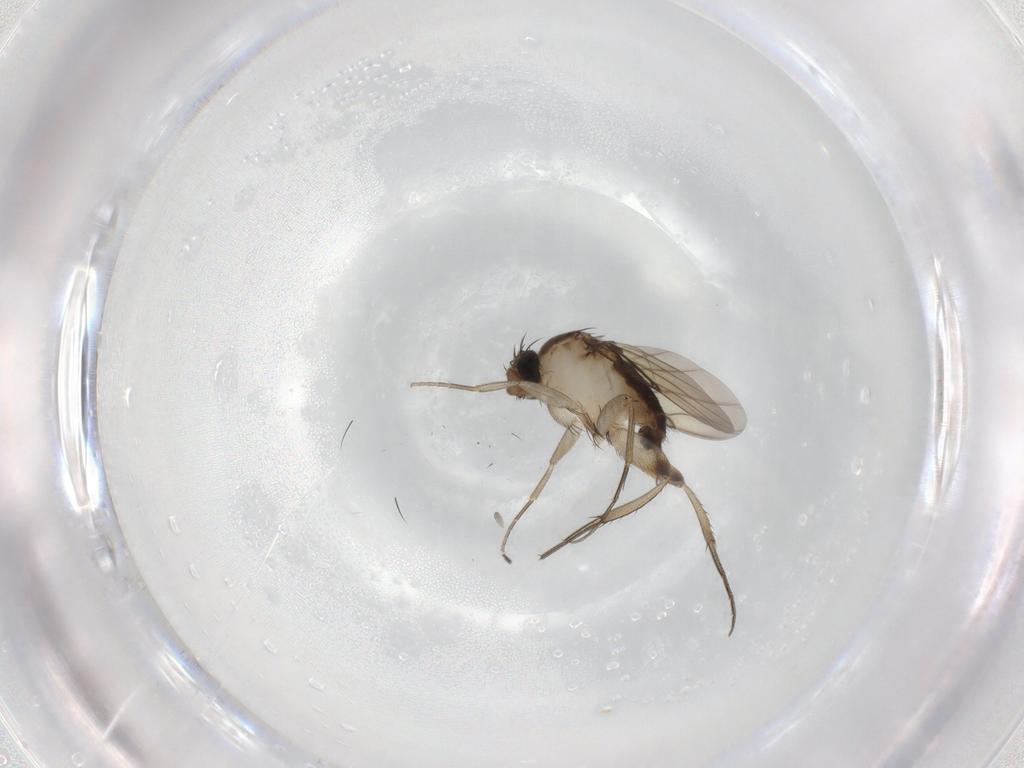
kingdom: Animalia
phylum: Arthropoda
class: Insecta
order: Diptera
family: Phoridae
